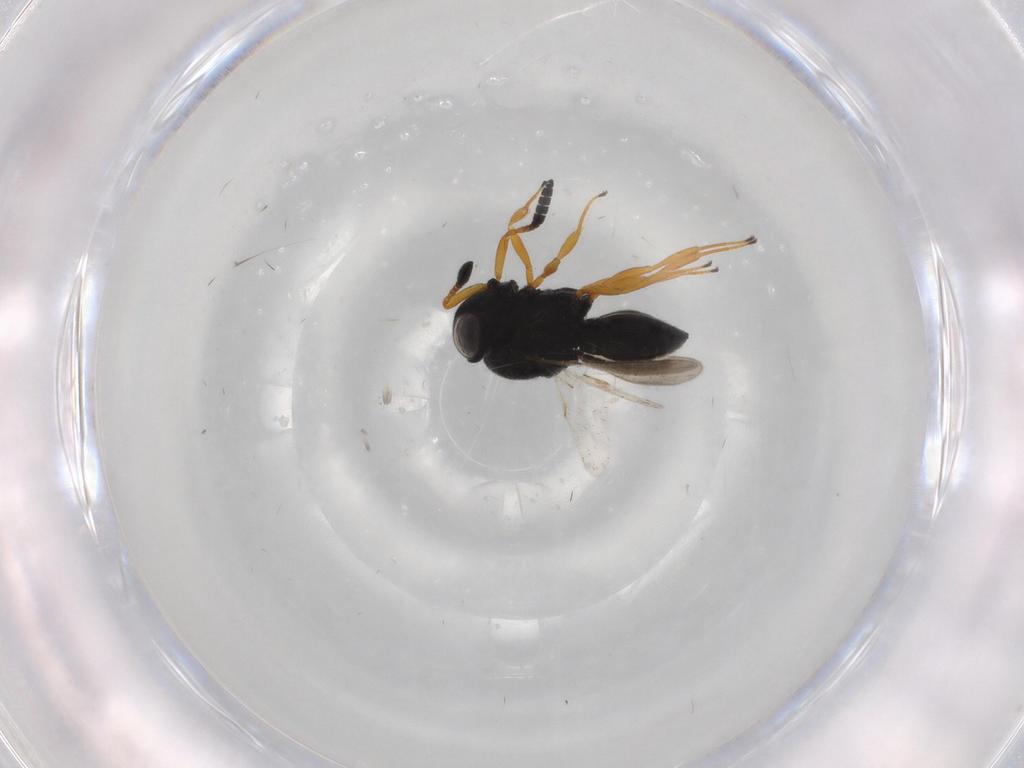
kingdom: Animalia
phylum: Arthropoda
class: Insecta
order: Hymenoptera
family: Scelionidae
